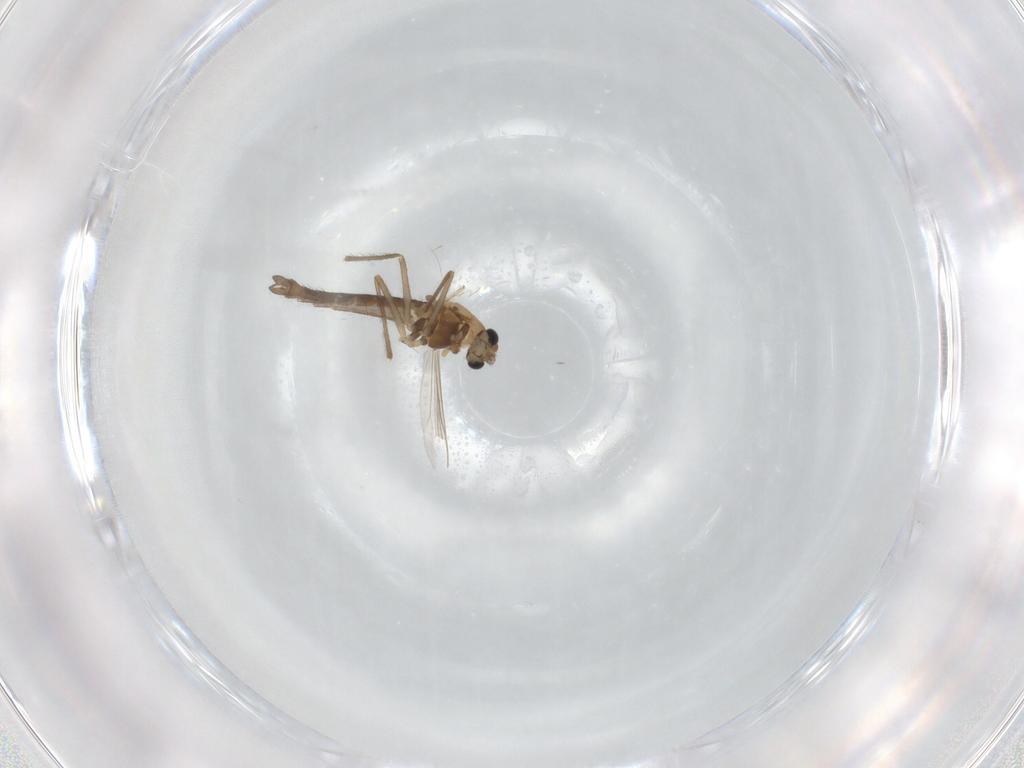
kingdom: Animalia
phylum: Arthropoda
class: Insecta
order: Diptera
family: Chironomidae
